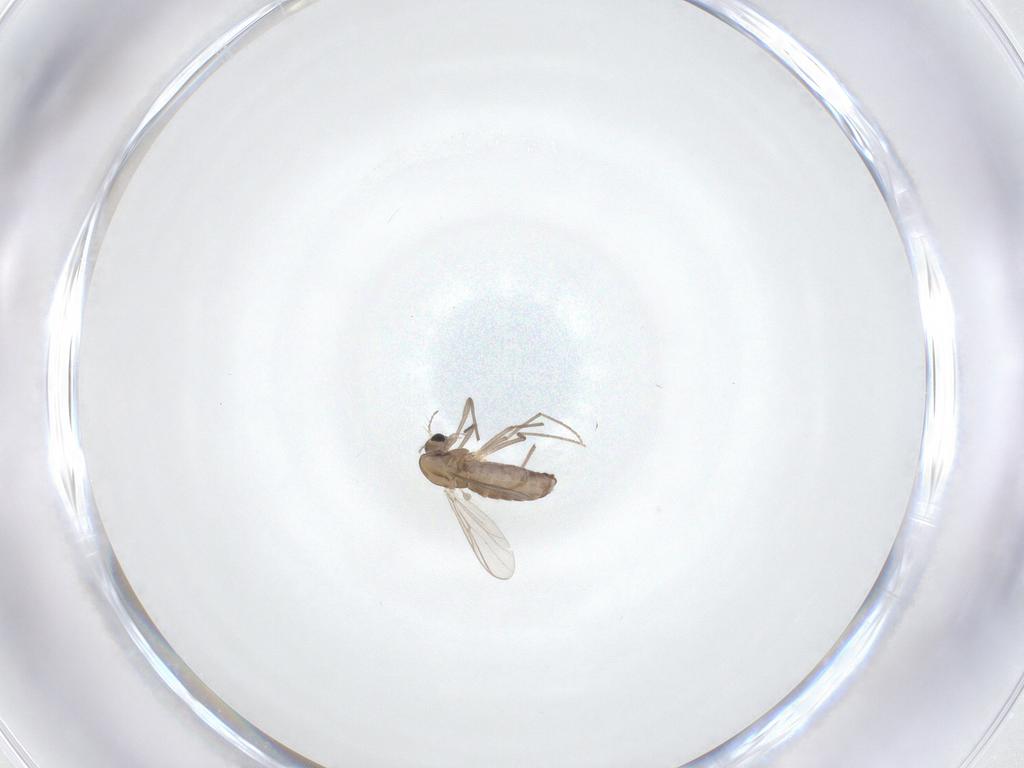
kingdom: Animalia
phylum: Arthropoda
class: Insecta
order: Diptera
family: Chironomidae
